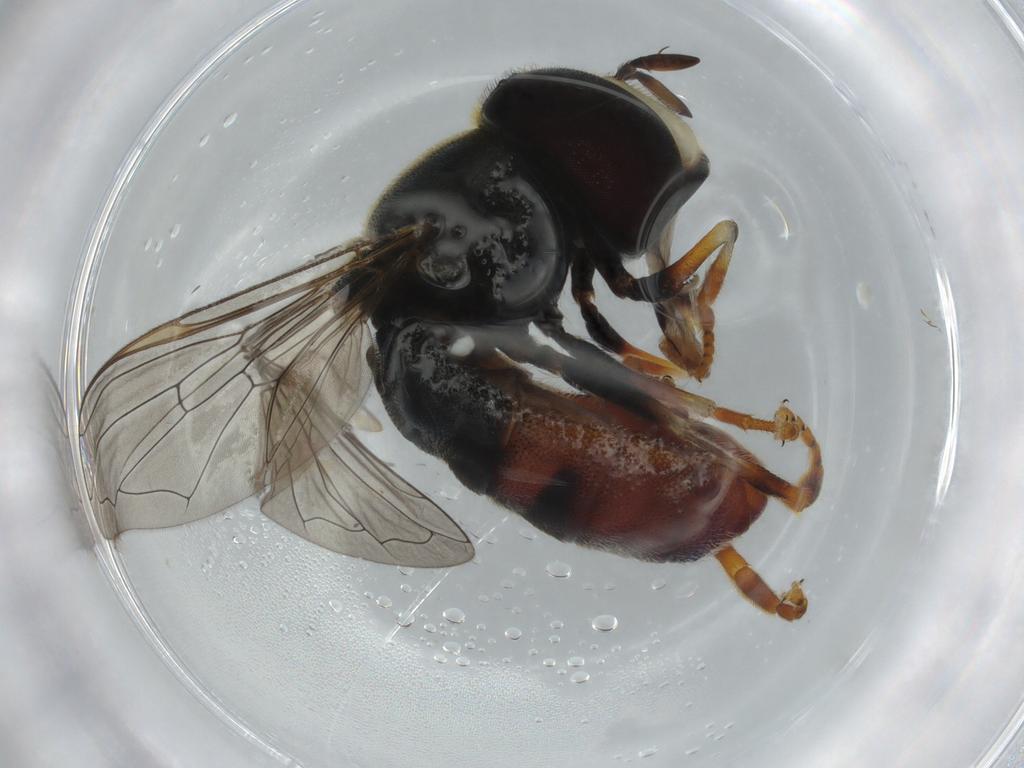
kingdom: Animalia
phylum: Arthropoda
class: Insecta
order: Diptera
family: Syrphidae
